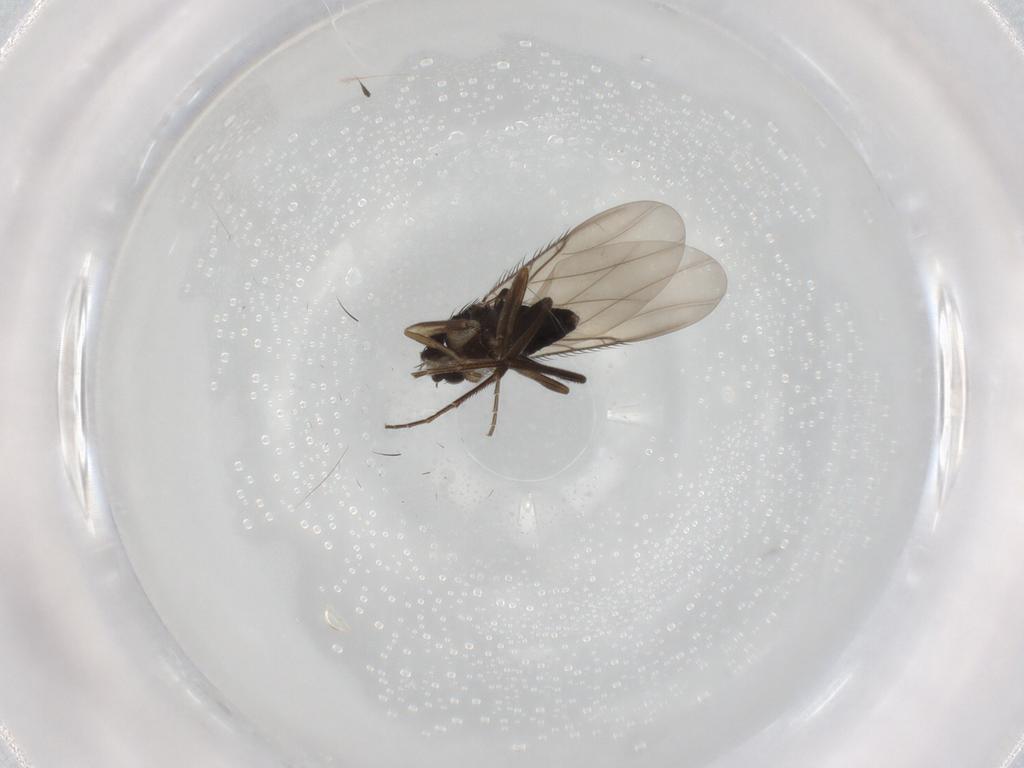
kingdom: Animalia
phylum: Arthropoda
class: Insecta
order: Diptera
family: Phoridae
